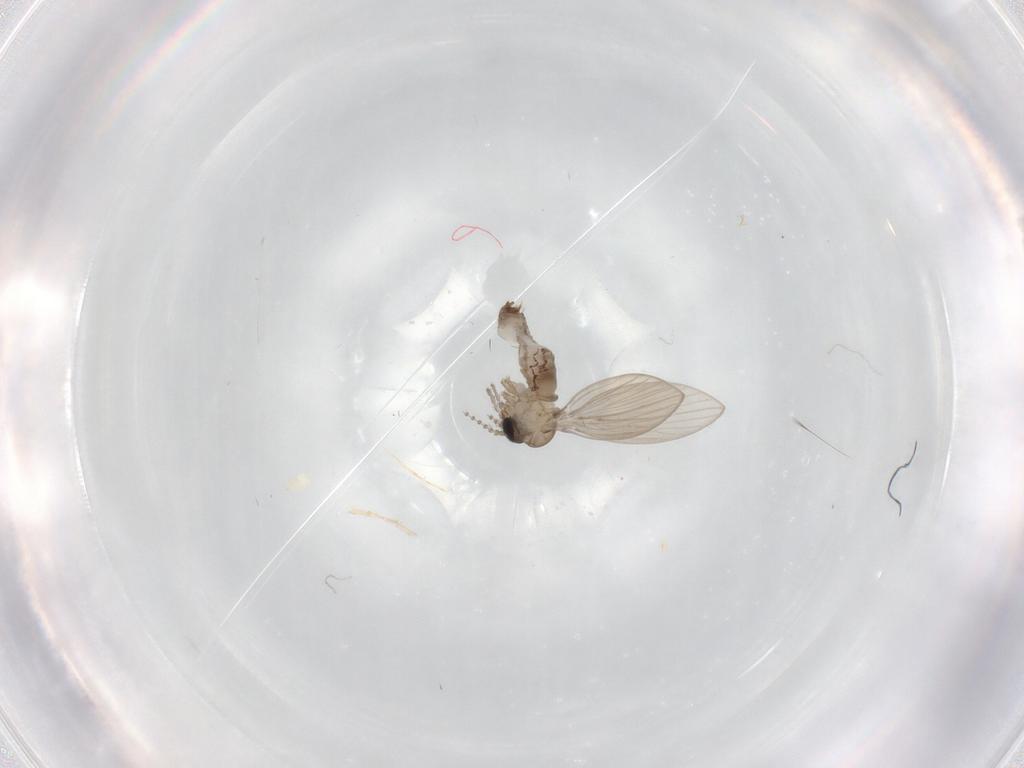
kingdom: Animalia
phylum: Arthropoda
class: Insecta
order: Diptera
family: Psychodidae
